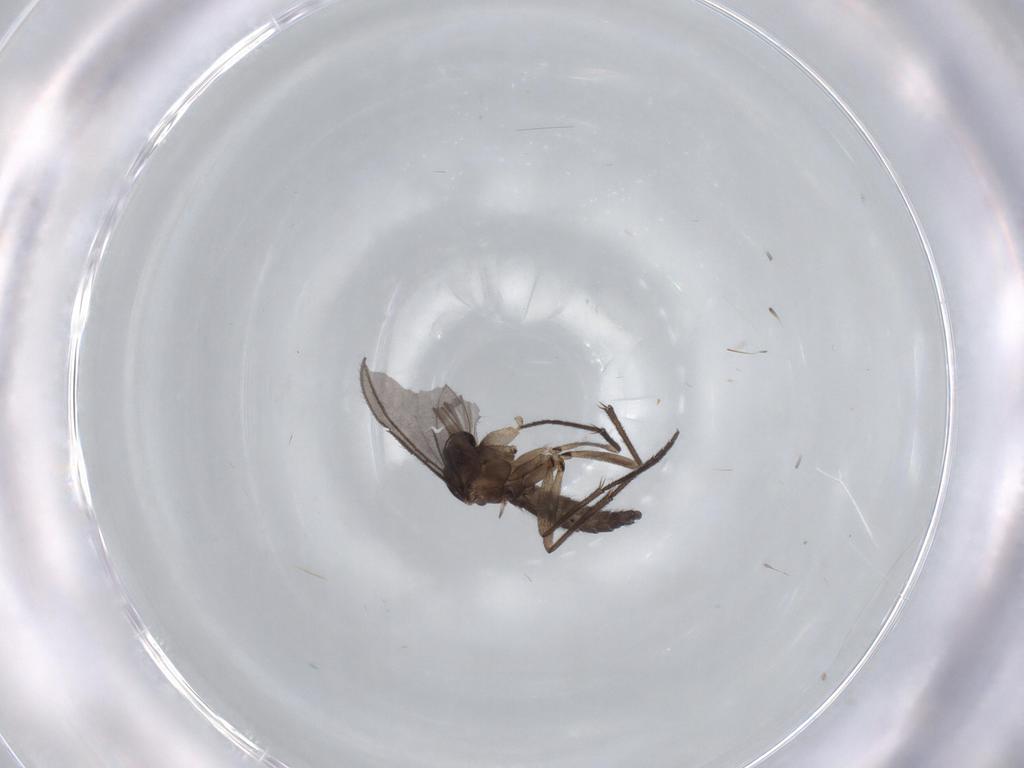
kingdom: Animalia
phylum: Arthropoda
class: Insecta
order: Diptera
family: Sciaridae
